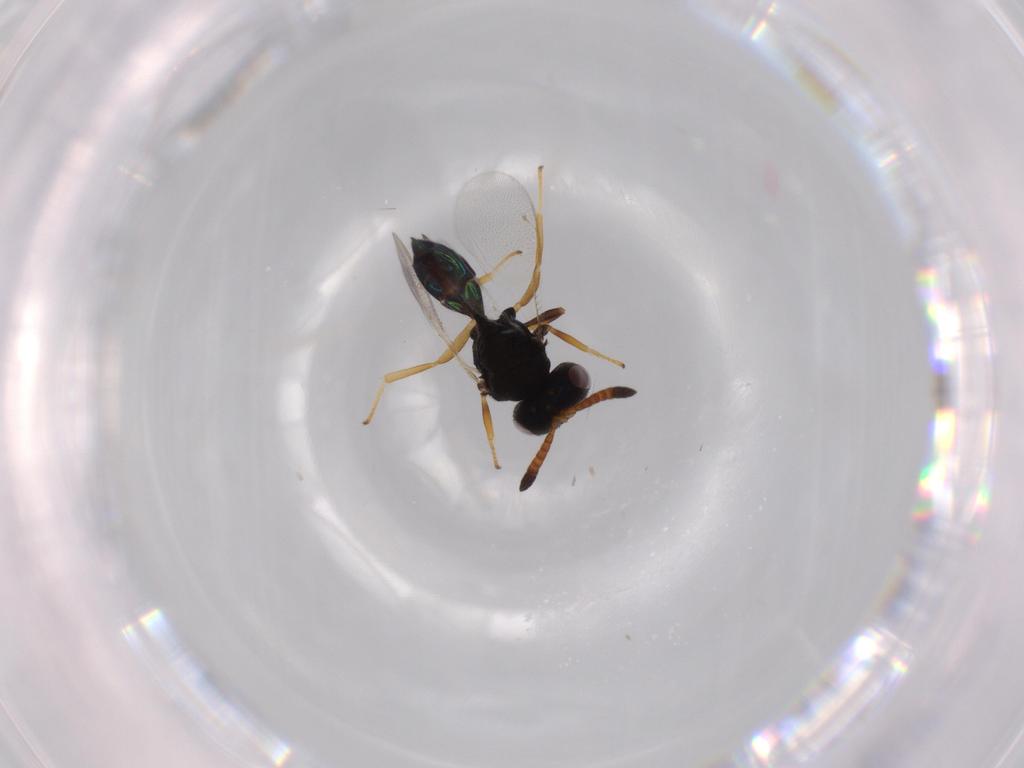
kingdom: Animalia
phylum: Arthropoda
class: Insecta
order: Hymenoptera
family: Pteromalidae
